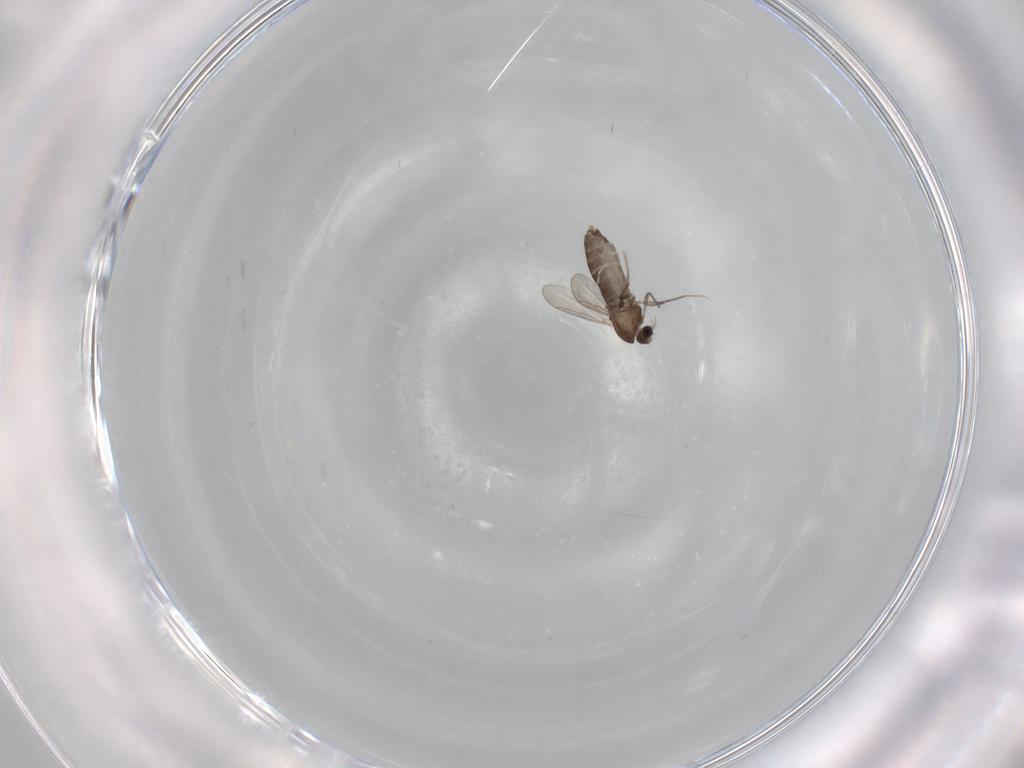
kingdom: Animalia
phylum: Arthropoda
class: Insecta
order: Diptera
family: Chironomidae
